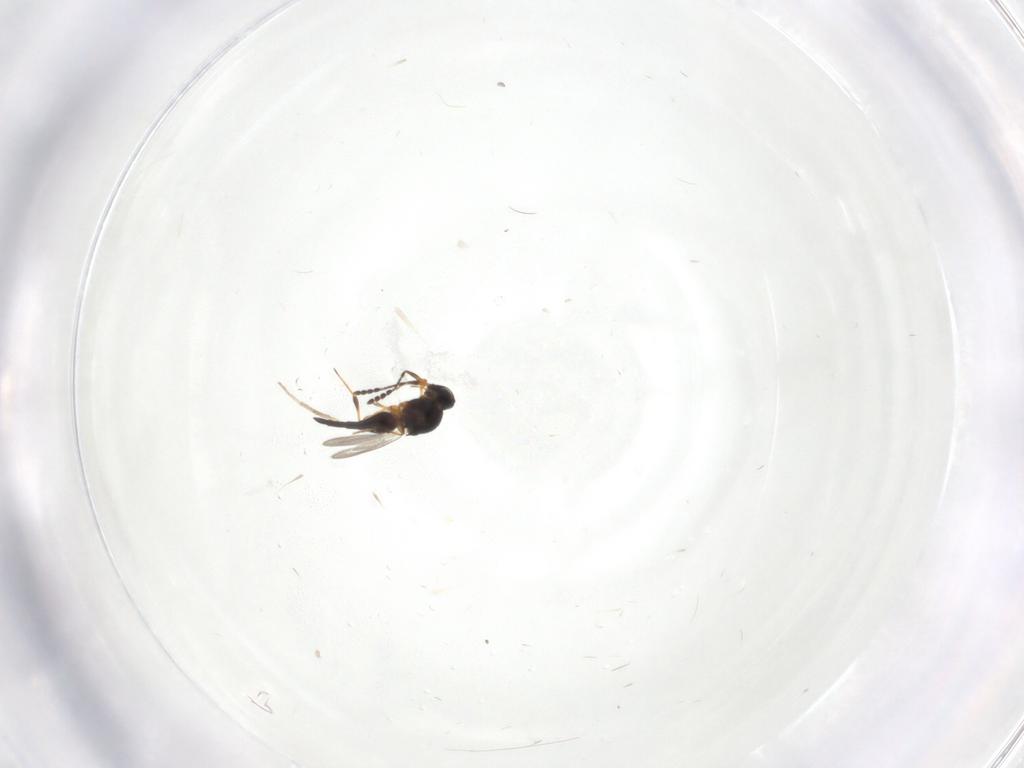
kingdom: Animalia
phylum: Arthropoda
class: Insecta
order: Hymenoptera
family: Platygastridae
